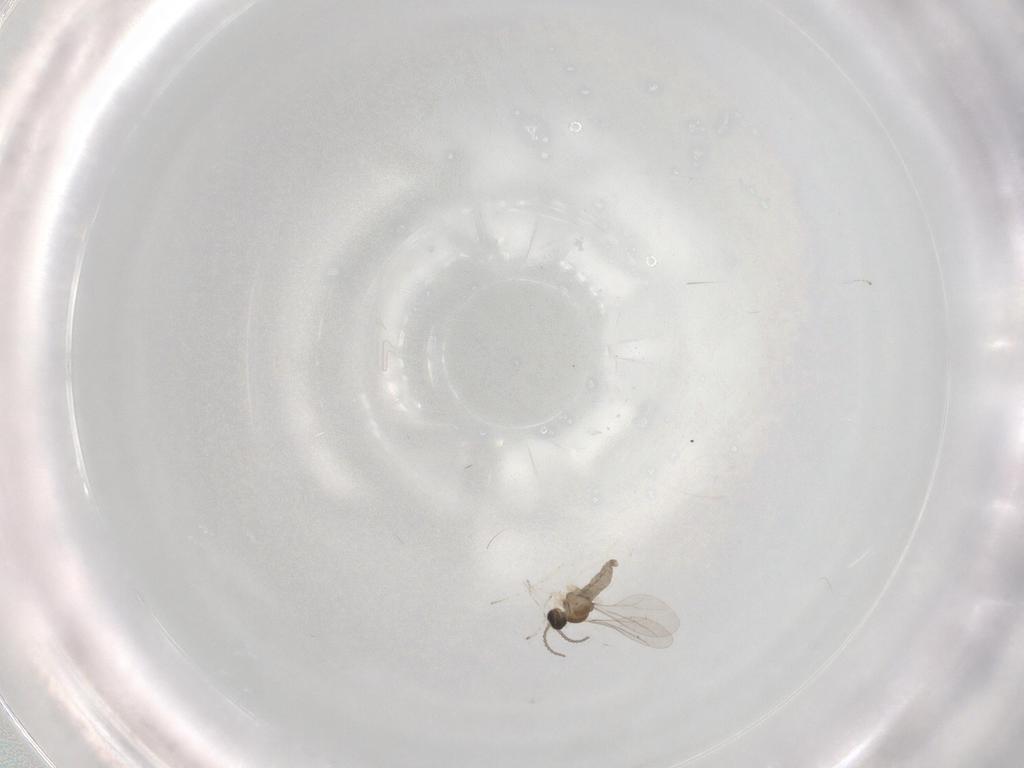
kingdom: Animalia
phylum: Arthropoda
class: Insecta
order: Diptera
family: Cecidomyiidae
